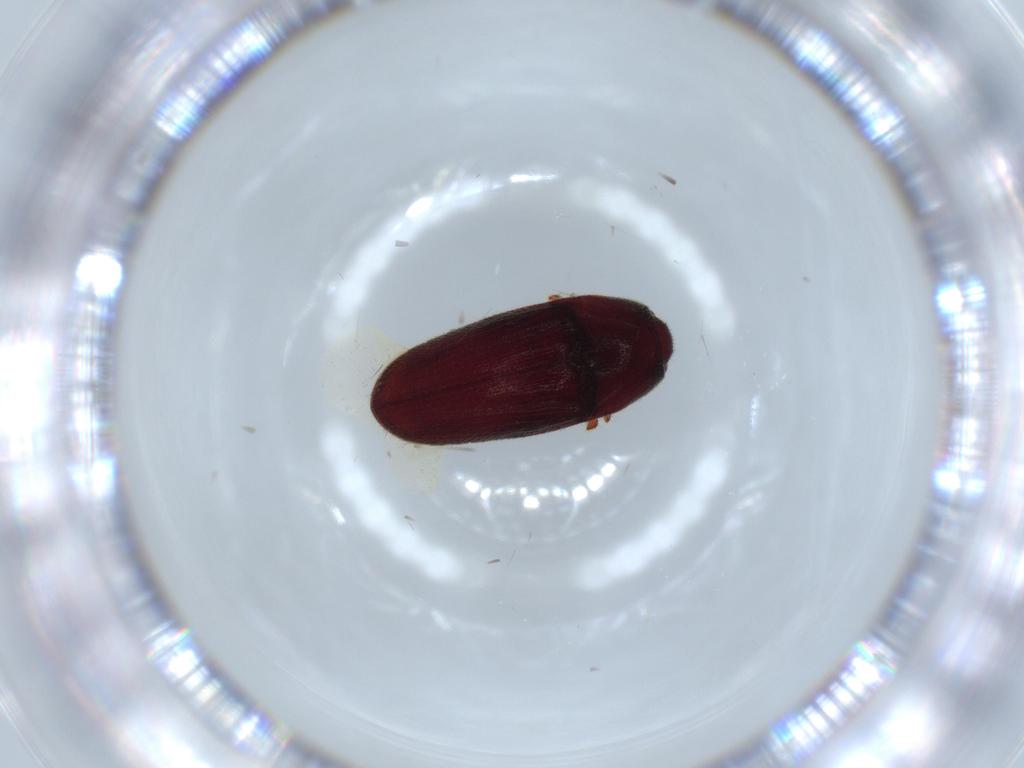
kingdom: Animalia
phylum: Arthropoda
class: Insecta
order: Coleoptera
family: Throscidae
